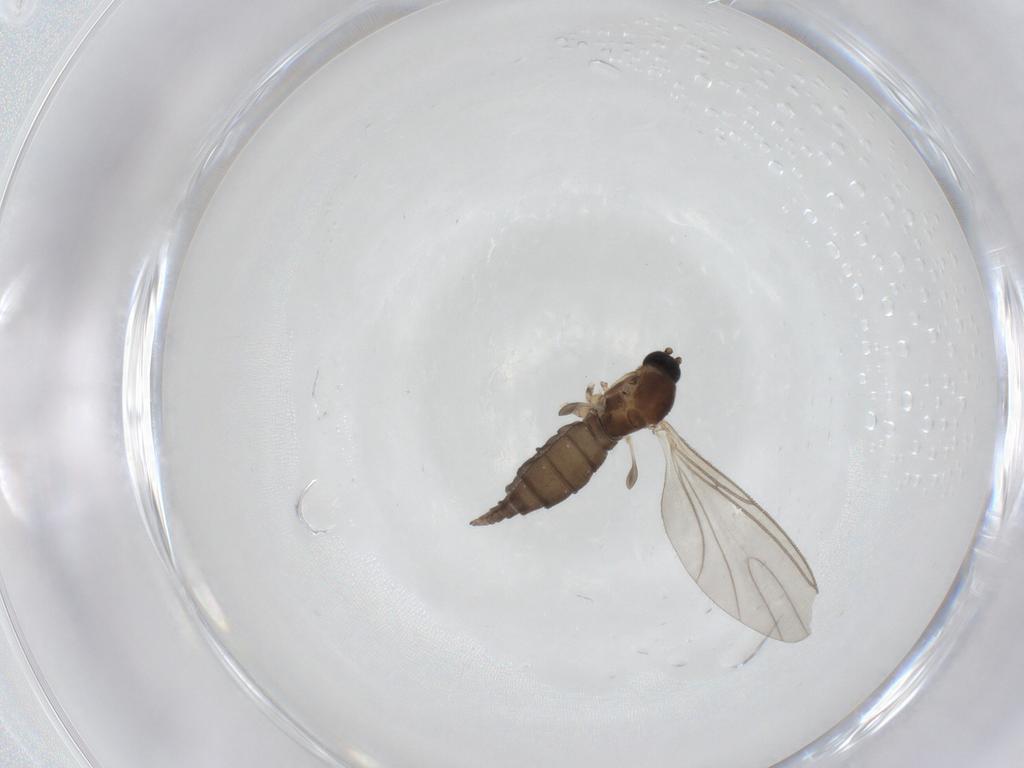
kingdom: Animalia
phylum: Arthropoda
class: Insecta
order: Diptera
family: Sciaridae
